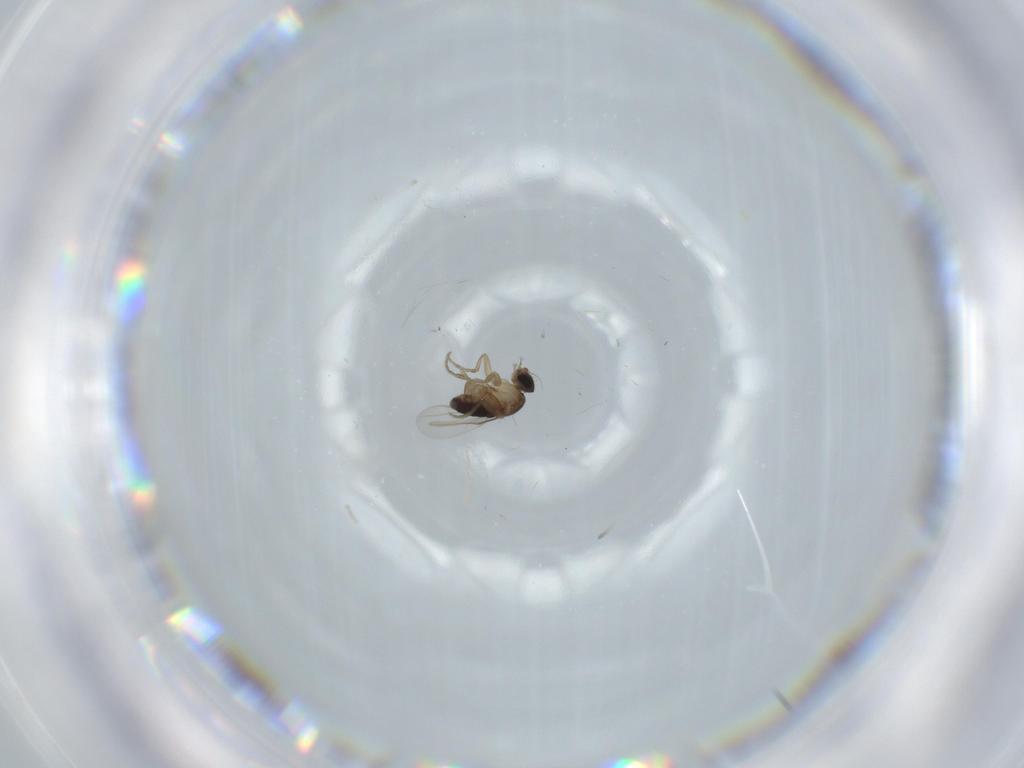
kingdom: Animalia
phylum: Arthropoda
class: Insecta
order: Diptera
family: Phoridae
